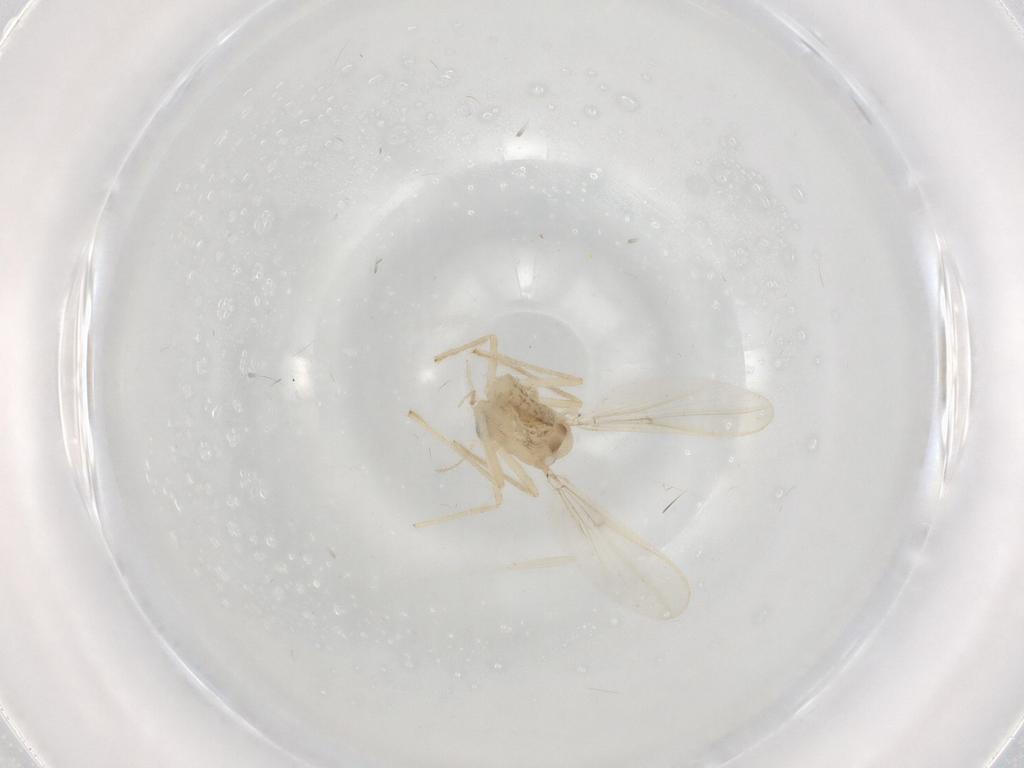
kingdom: Animalia
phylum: Arthropoda
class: Insecta
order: Diptera
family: Chironomidae
